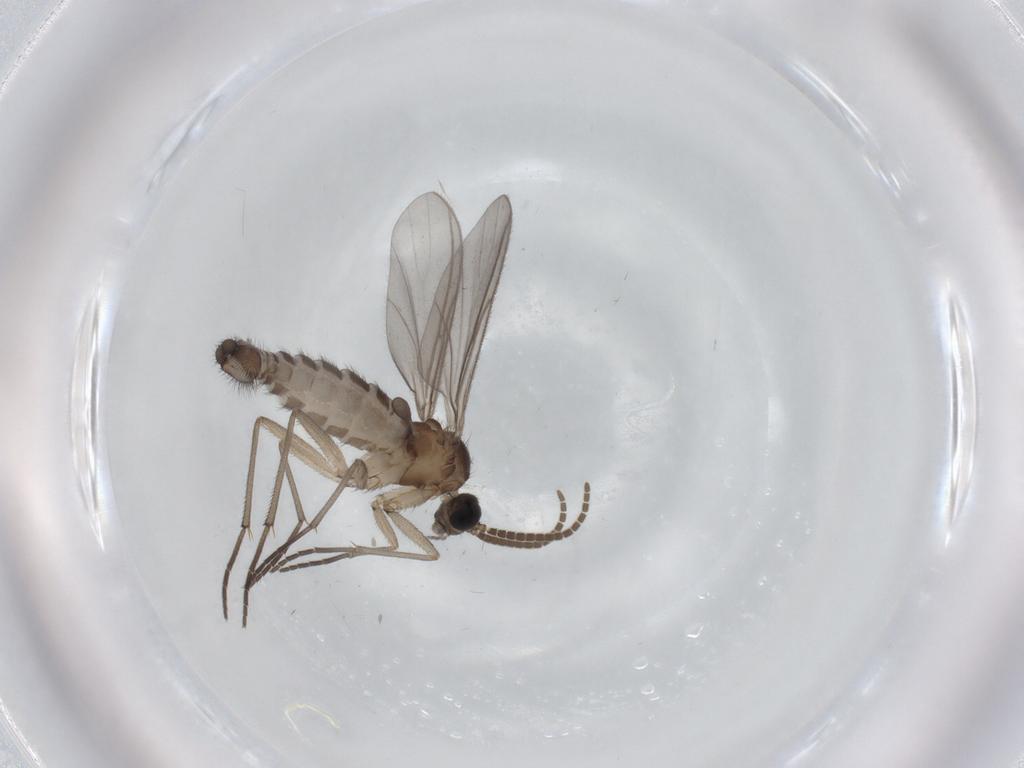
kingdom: Animalia
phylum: Arthropoda
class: Insecta
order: Diptera
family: Sciaridae
